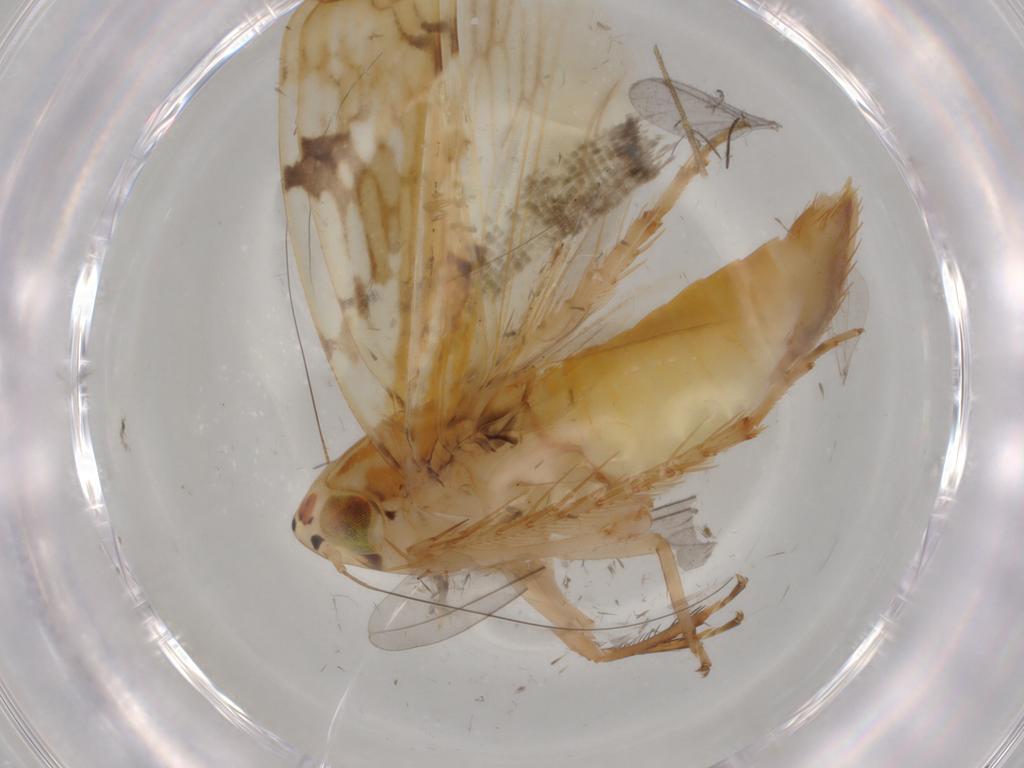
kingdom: Animalia
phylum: Arthropoda
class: Insecta
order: Hemiptera
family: Cicadellidae
